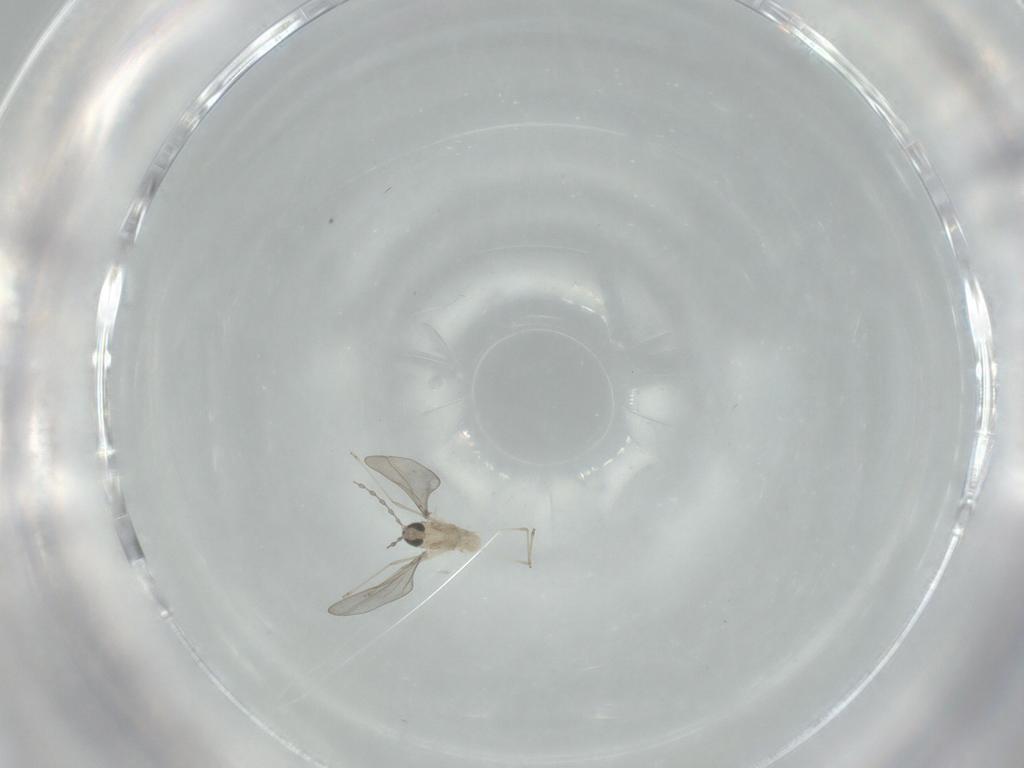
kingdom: Animalia
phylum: Arthropoda
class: Insecta
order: Diptera
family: Cecidomyiidae
